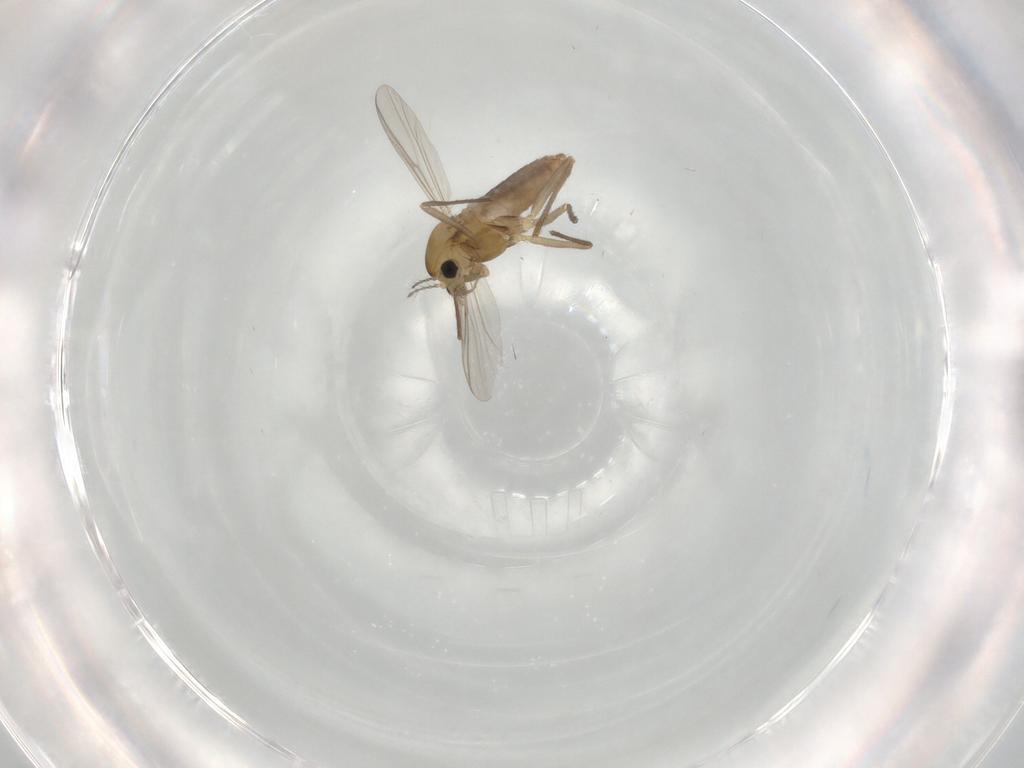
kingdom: Animalia
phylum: Arthropoda
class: Insecta
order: Diptera
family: Chironomidae
